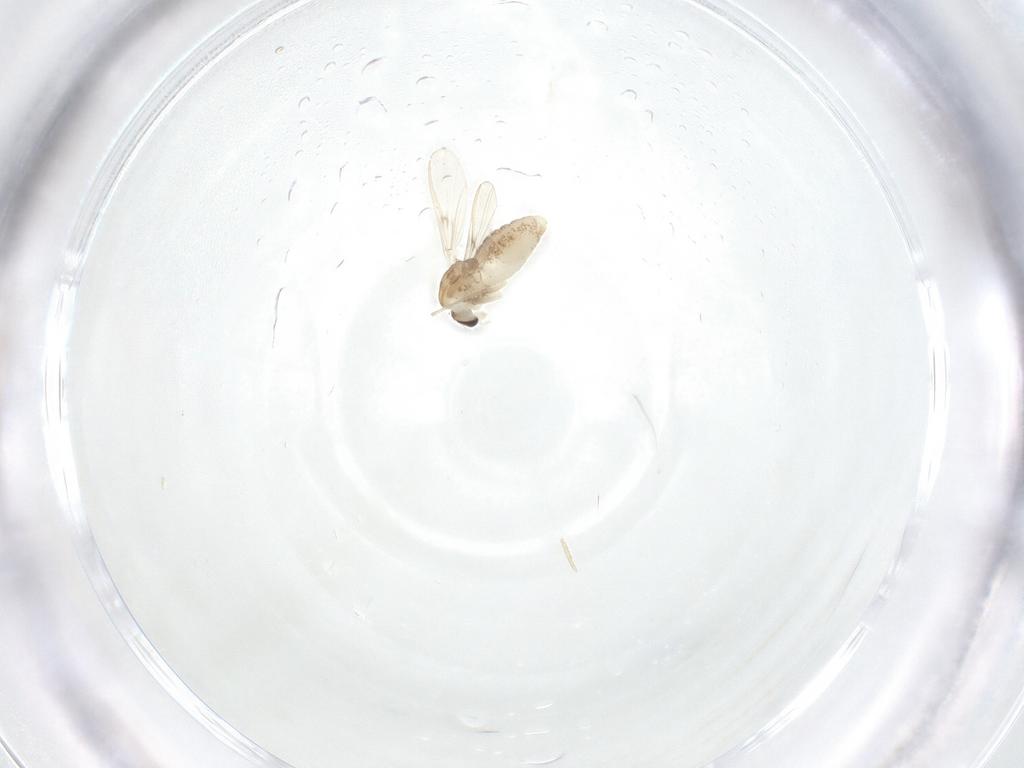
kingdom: Animalia
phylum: Arthropoda
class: Insecta
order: Diptera
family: Chironomidae
